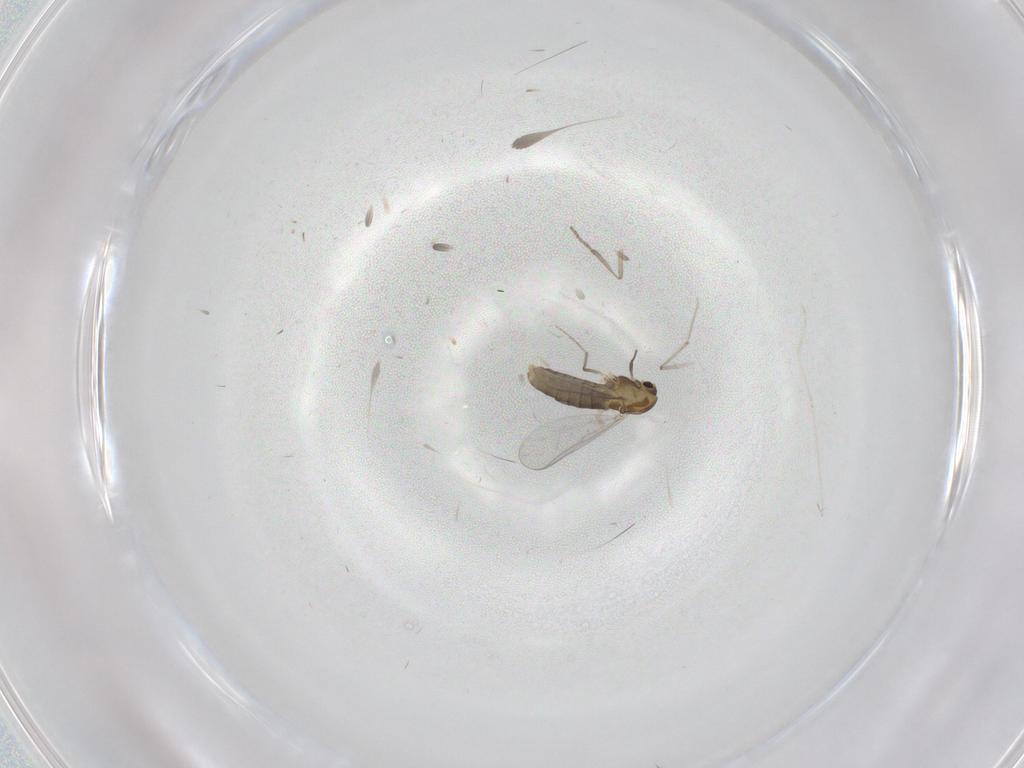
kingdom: Animalia
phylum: Arthropoda
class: Insecta
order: Diptera
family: Chironomidae
